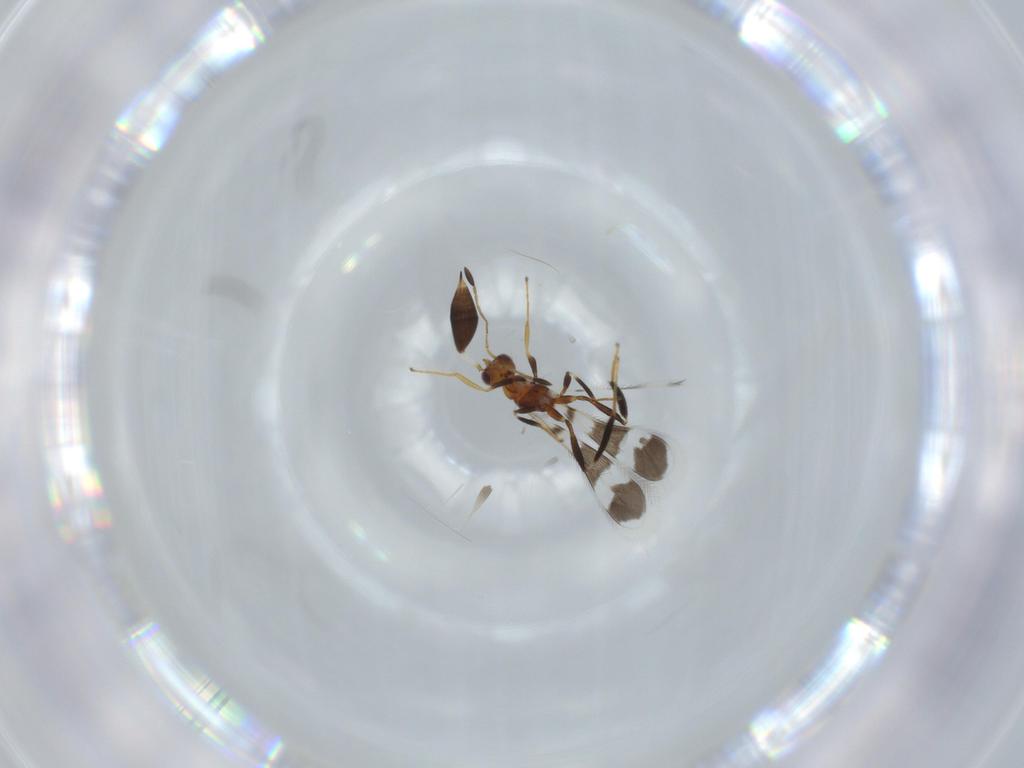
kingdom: Animalia
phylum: Arthropoda
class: Insecta
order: Hymenoptera
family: Mymaridae
